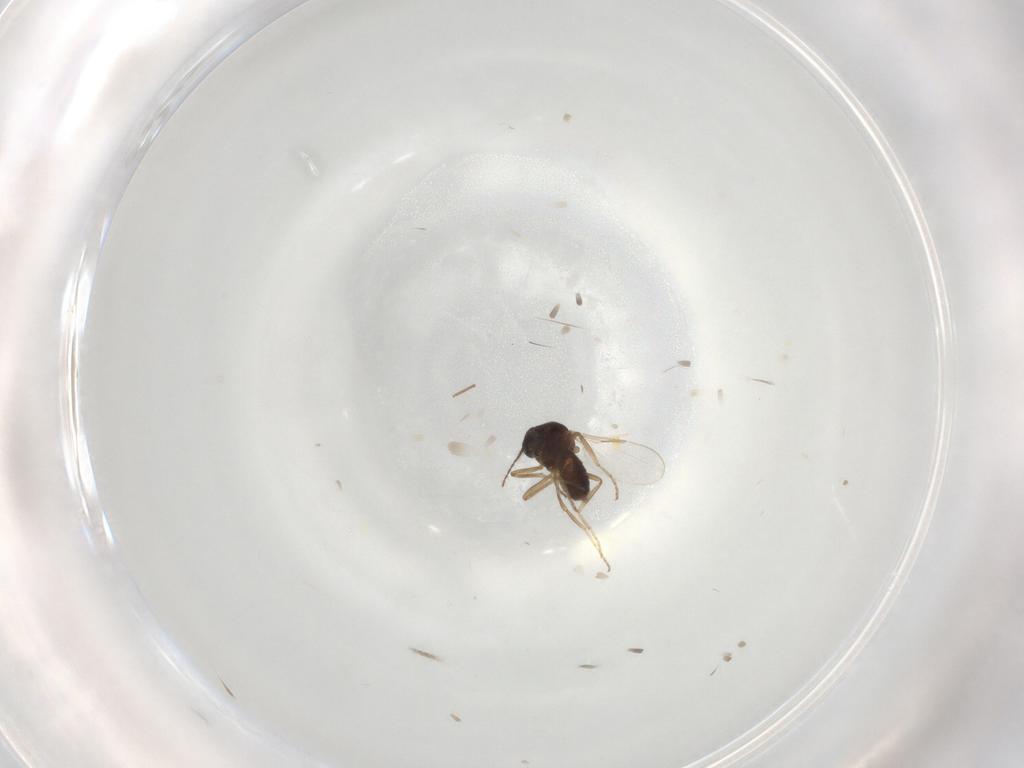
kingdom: Animalia
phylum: Arthropoda
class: Insecta
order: Diptera
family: Ceratopogonidae
